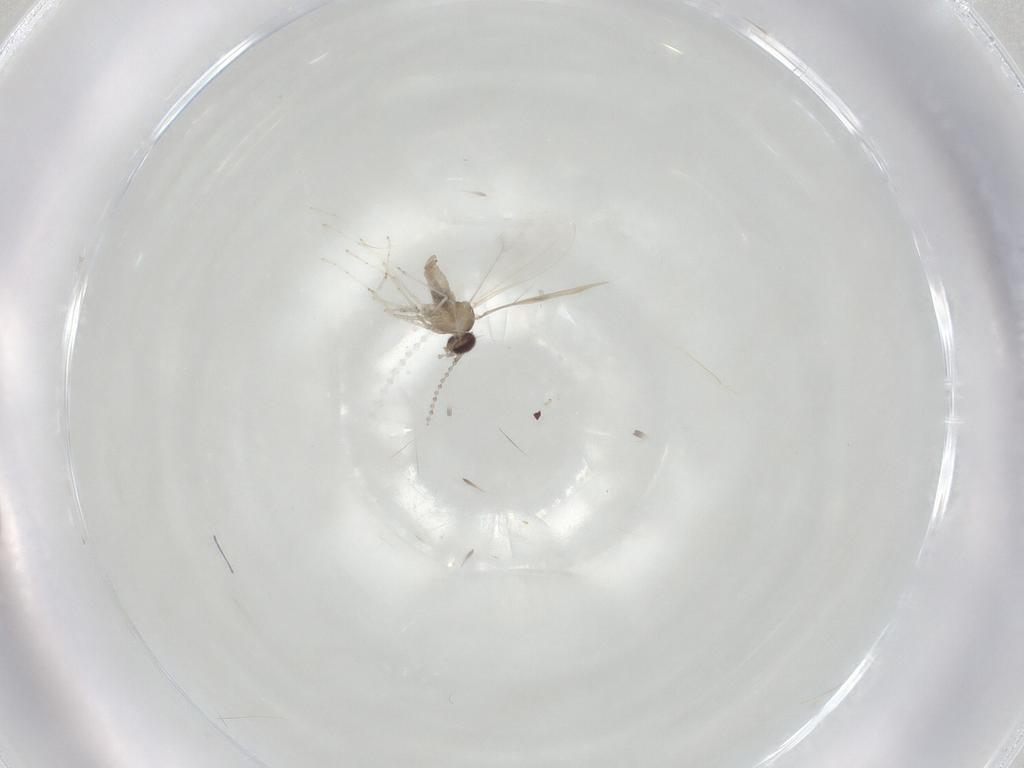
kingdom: Animalia
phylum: Arthropoda
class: Insecta
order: Diptera
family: Cecidomyiidae
